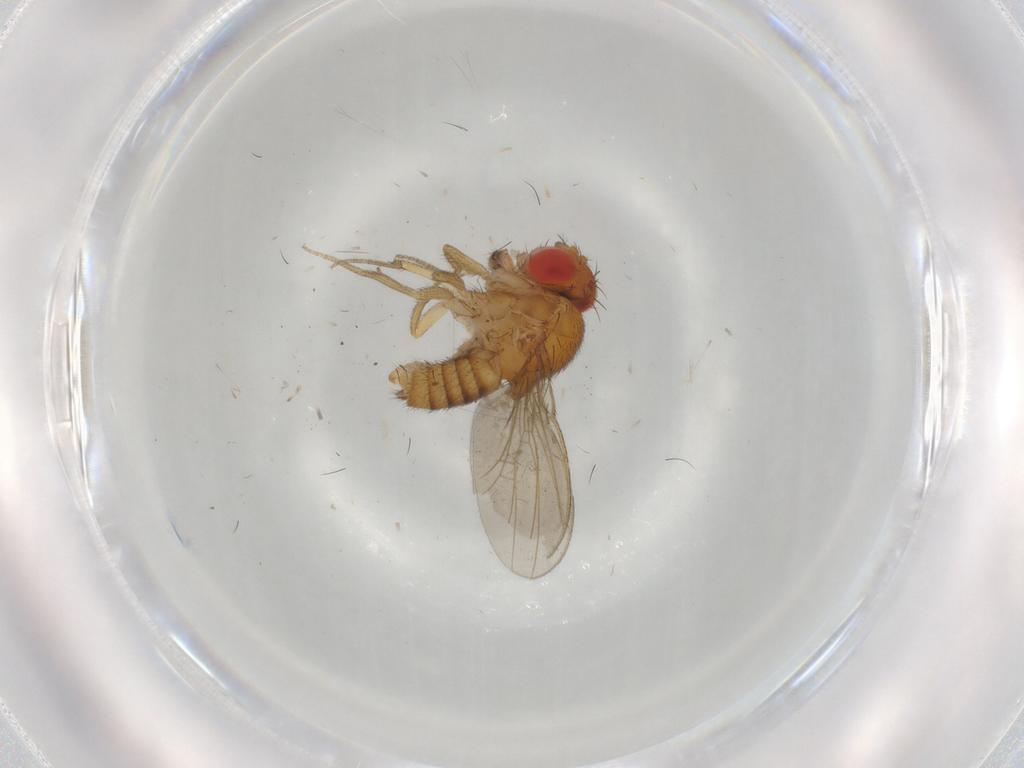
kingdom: Animalia
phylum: Arthropoda
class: Insecta
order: Diptera
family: Drosophilidae
